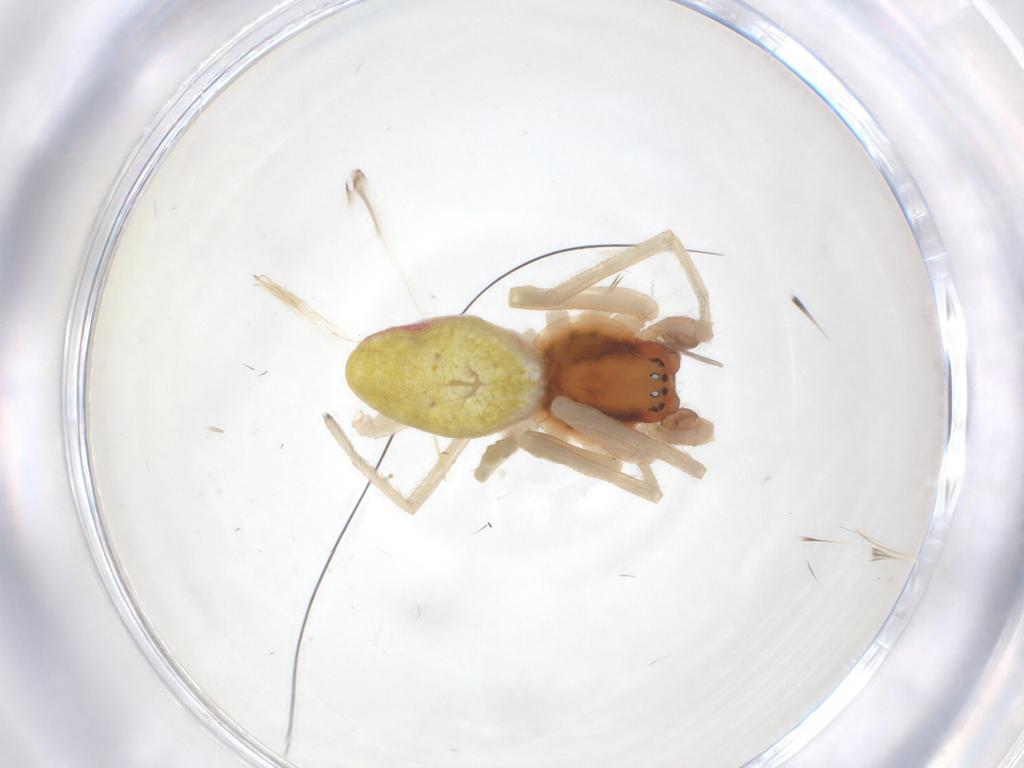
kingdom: Animalia
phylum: Arthropoda
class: Arachnida
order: Araneae
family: Dictynidae
